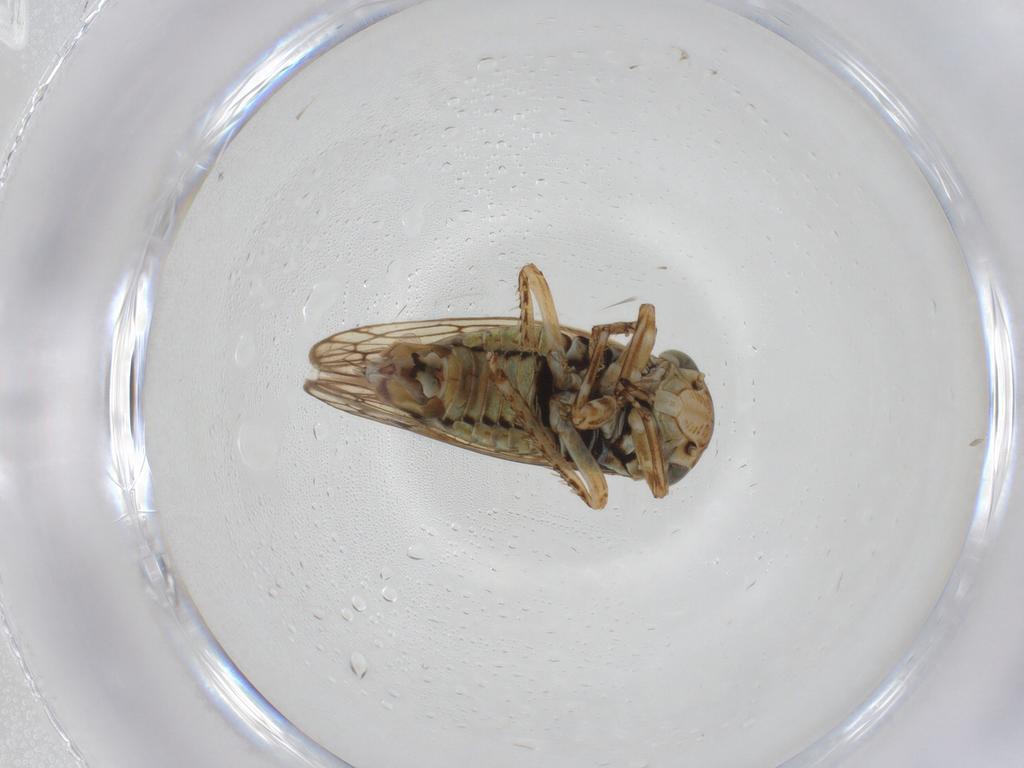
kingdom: Animalia
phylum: Arthropoda
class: Insecta
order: Hemiptera
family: Cicadellidae
